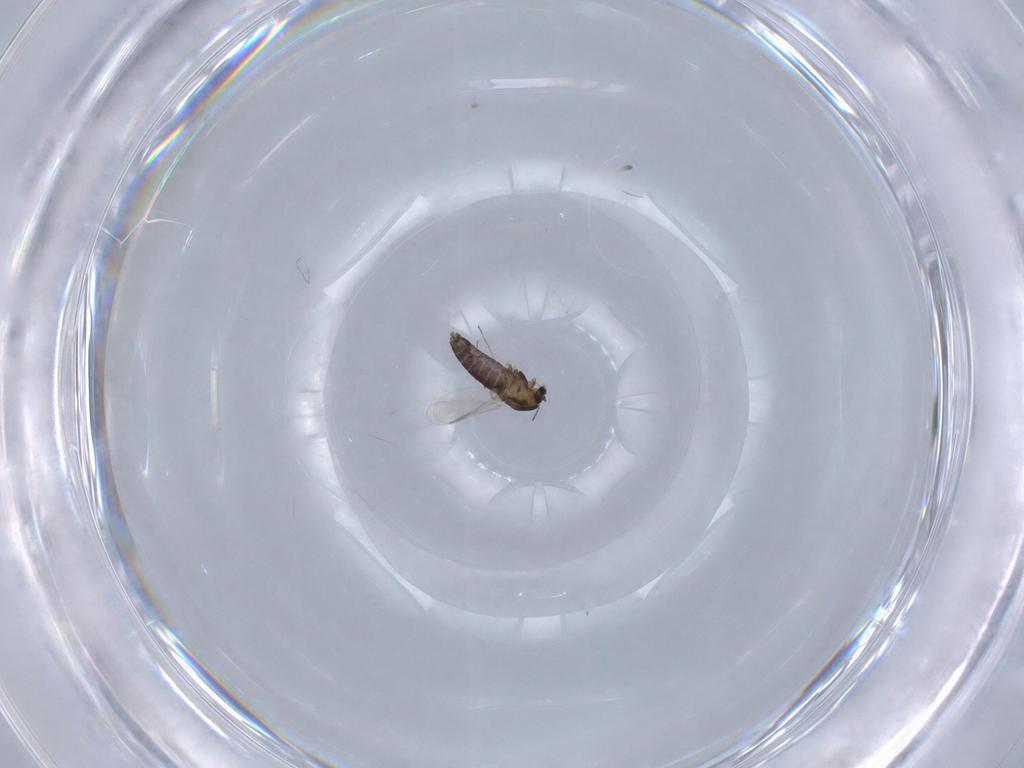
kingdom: Animalia
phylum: Arthropoda
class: Insecta
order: Diptera
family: Chironomidae
